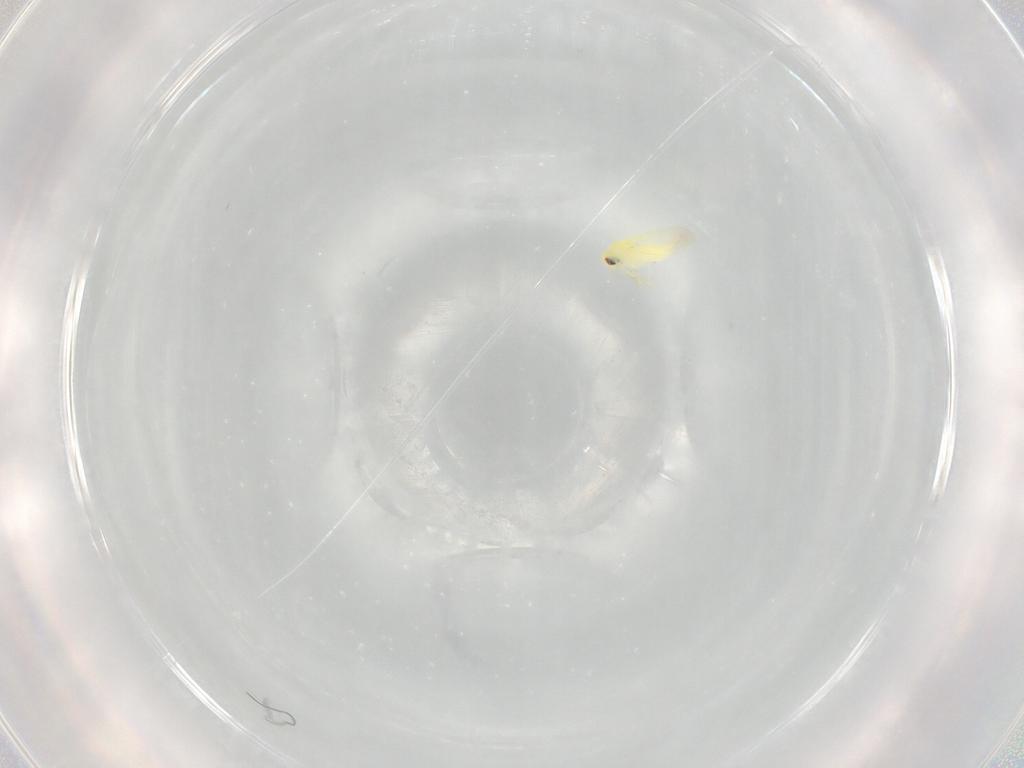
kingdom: Animalia
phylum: Arthropoda
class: Insecta
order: Hemiptera
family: Aleyrodidae
